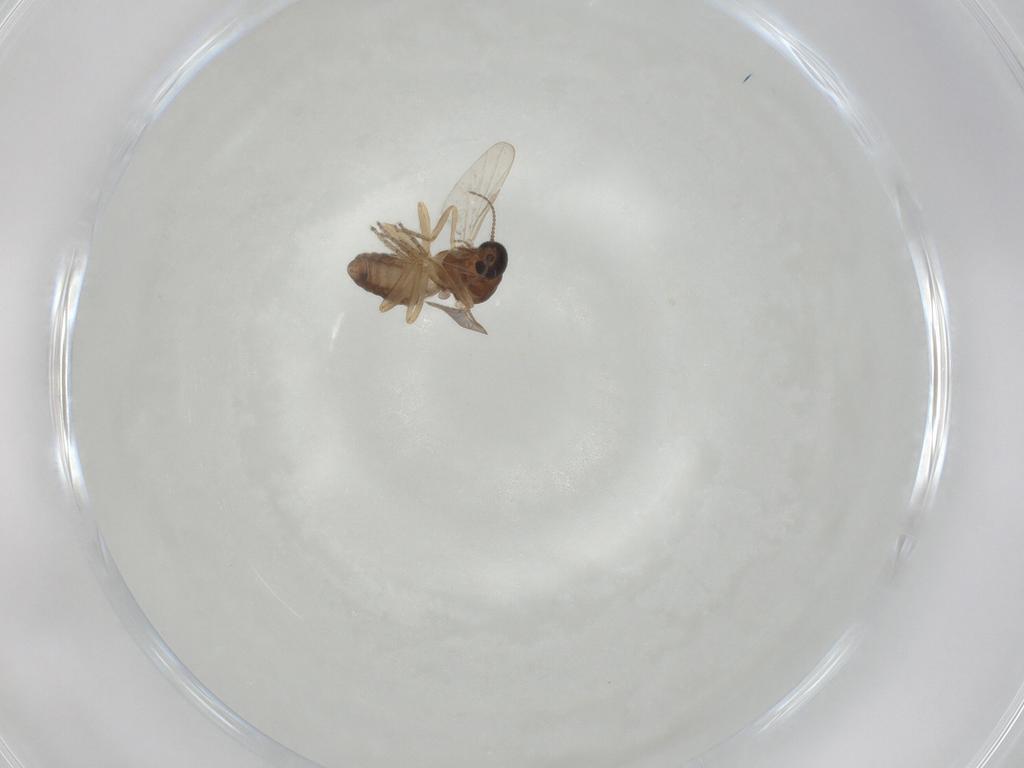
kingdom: Animalia
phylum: Arthropoda
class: Insecta
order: Diptera
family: Ceratopogonidae
